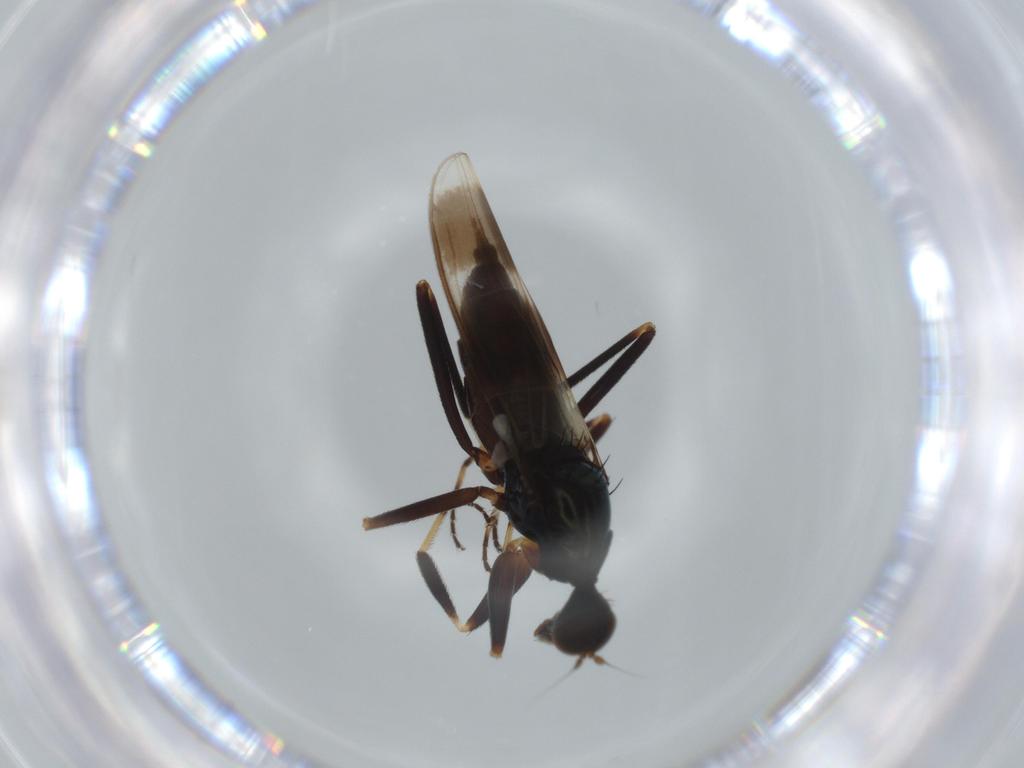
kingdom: Animalia
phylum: Arthropoda
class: Insecta
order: Diptera
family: Hybotidae
